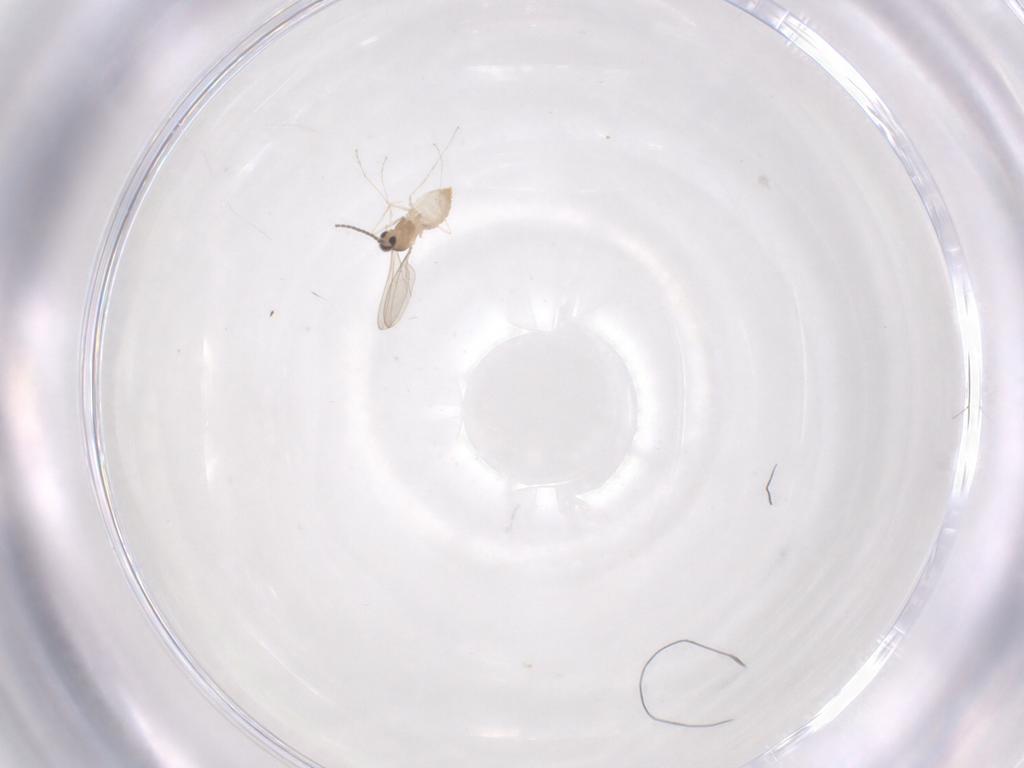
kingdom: Animalia
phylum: Arthropoda
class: Insecta
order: Diptera
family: Cecidomyiidae
